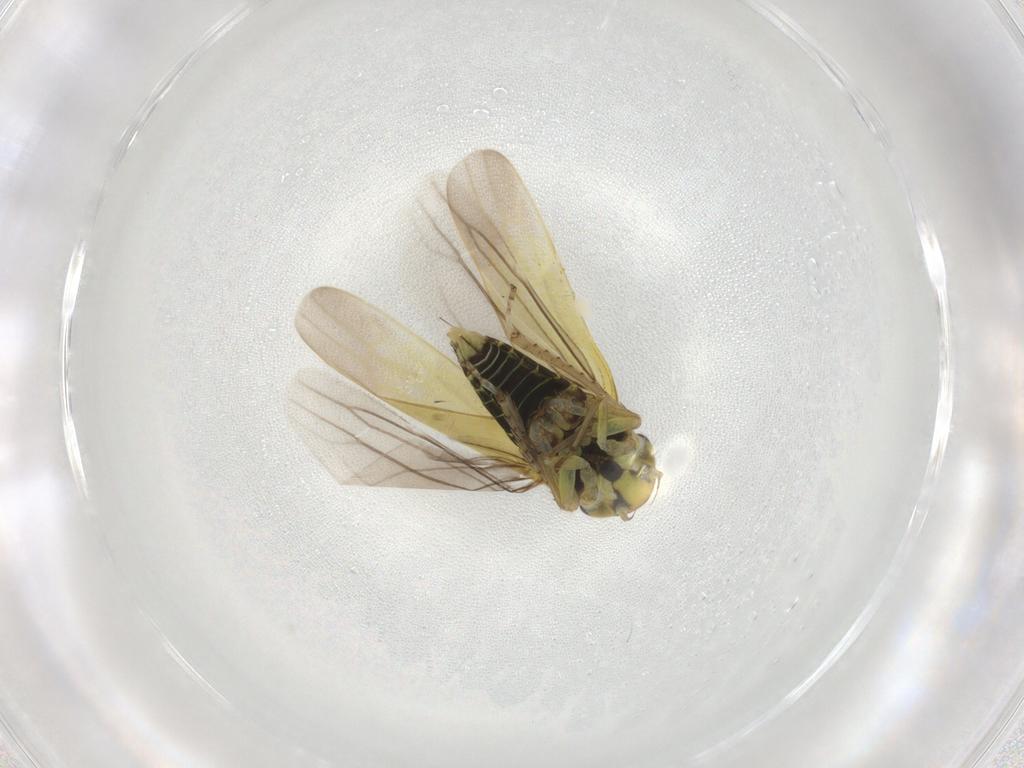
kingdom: Animalia
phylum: Arthropoda
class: Insecta
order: Hemiptera
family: Cicadellidae
